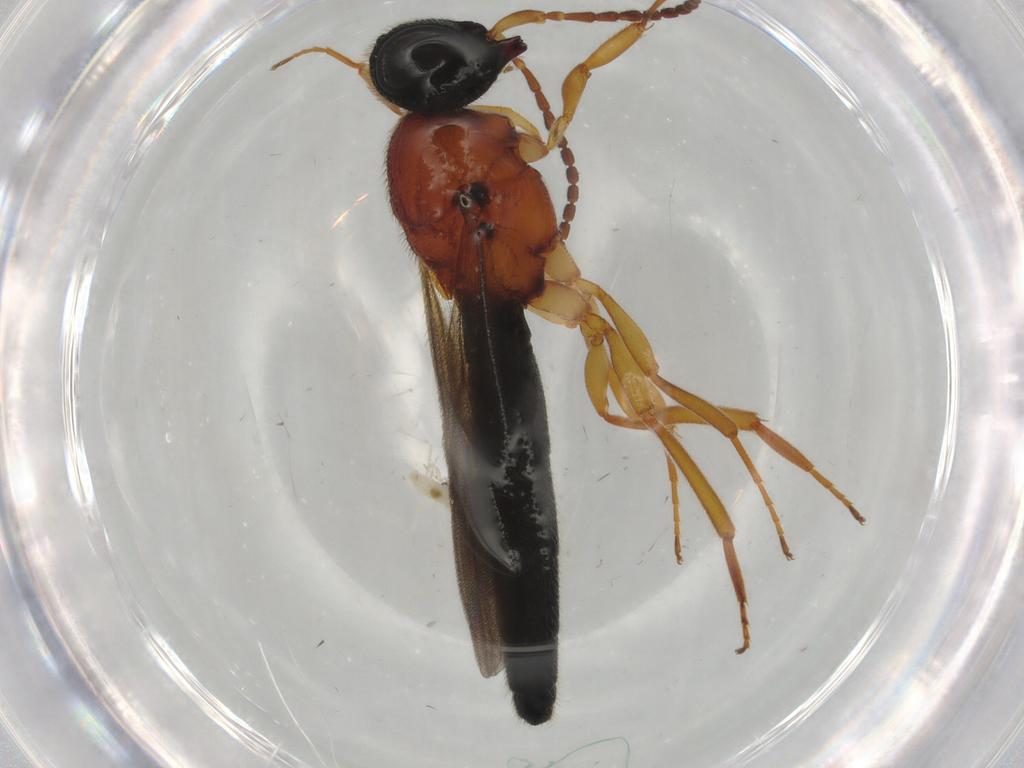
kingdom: Animalia
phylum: Arthropoda
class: Insecta
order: Hymenoptera
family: Scelionidae
